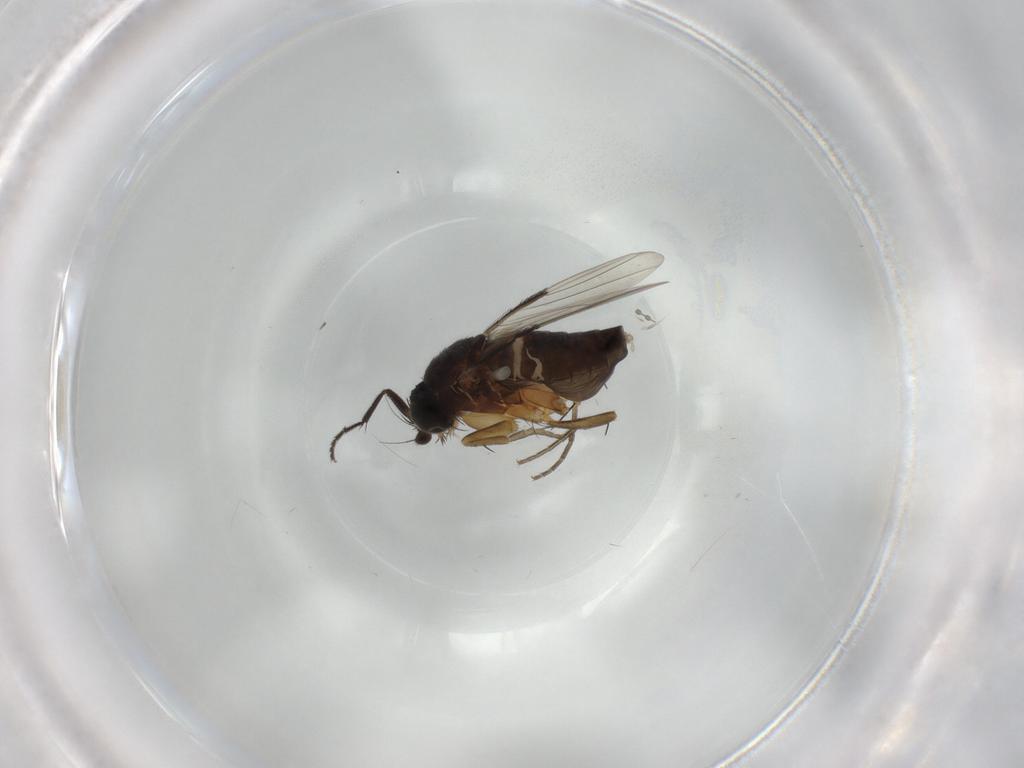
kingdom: Animalia
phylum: Arthropoda
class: Insecta
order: Diptera
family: Phoridae
